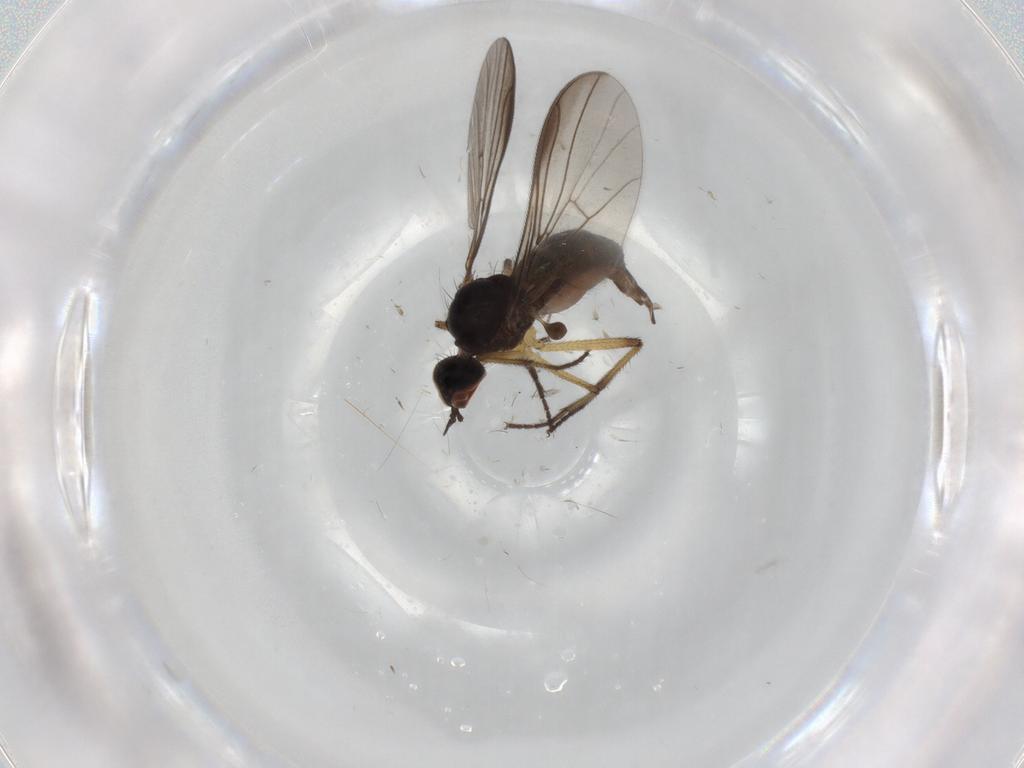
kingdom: Animalia
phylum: Arthropoda
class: Insecta
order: Diptera
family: Empididae
